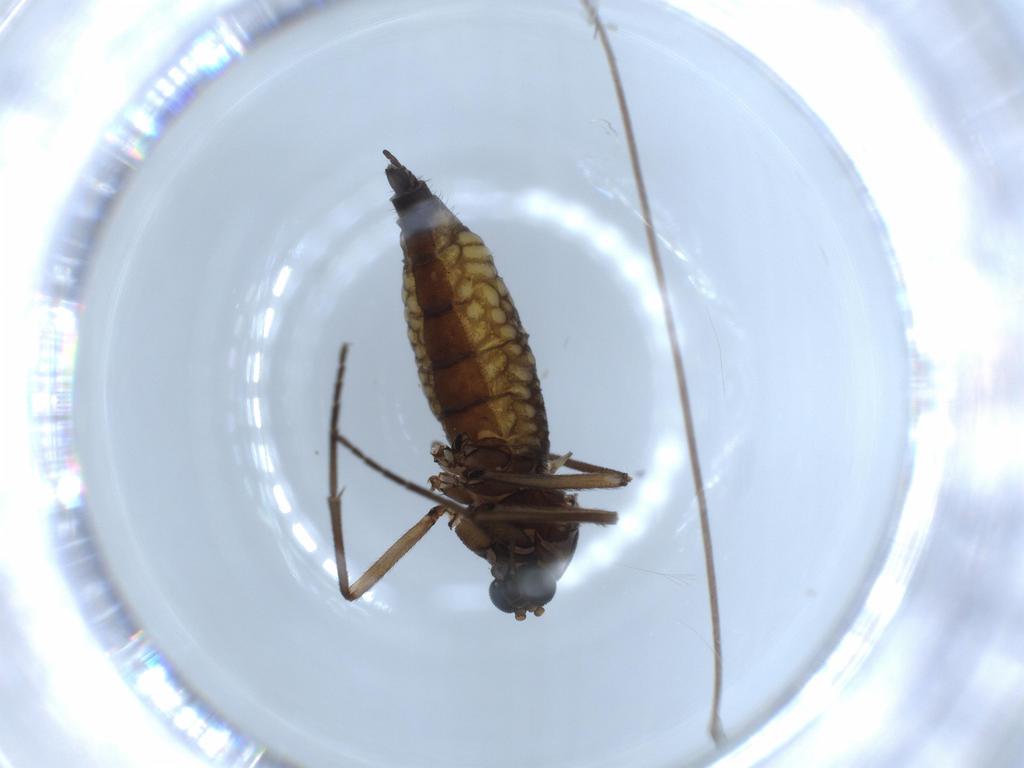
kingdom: Animalia
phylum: Arthropoda
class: Insecta
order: Diptera
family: Sciaridae
